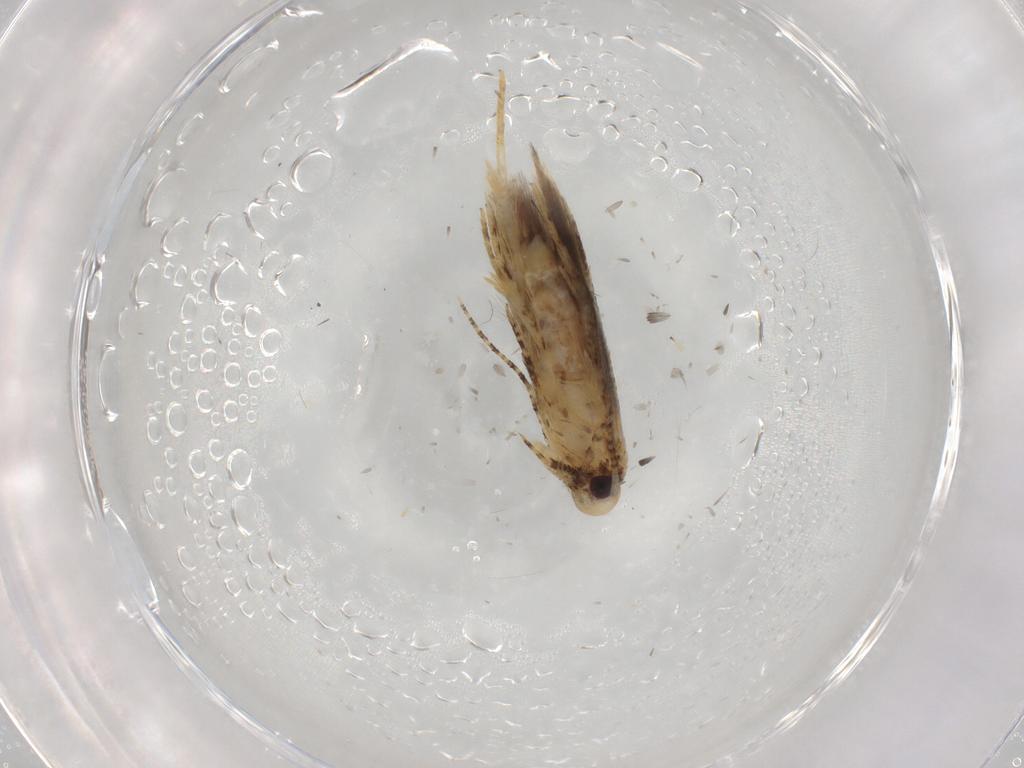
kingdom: Animalia
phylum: Arthropoda
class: Insecta
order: Lepidoptera
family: Gelechiidae
